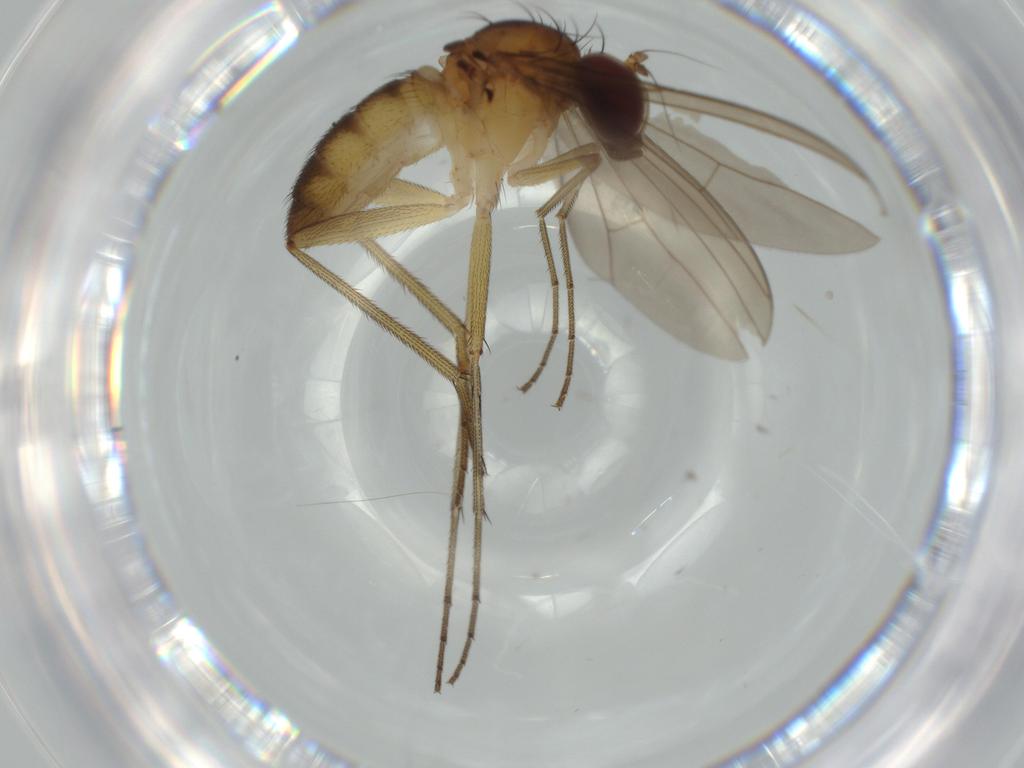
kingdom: Animalia
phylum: Arthropoda
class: Insecta
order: Diptera
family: Dolichopodidae
